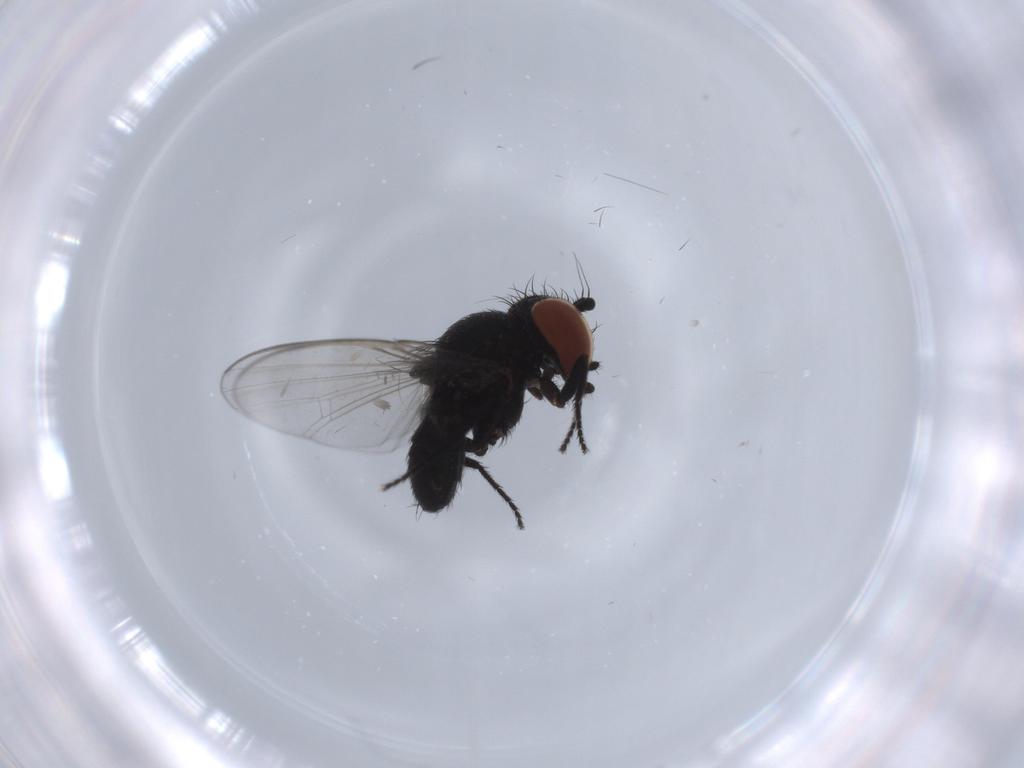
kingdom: Animalia
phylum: Arthropoda
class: Insecta
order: Diptera
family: Milichiidae
